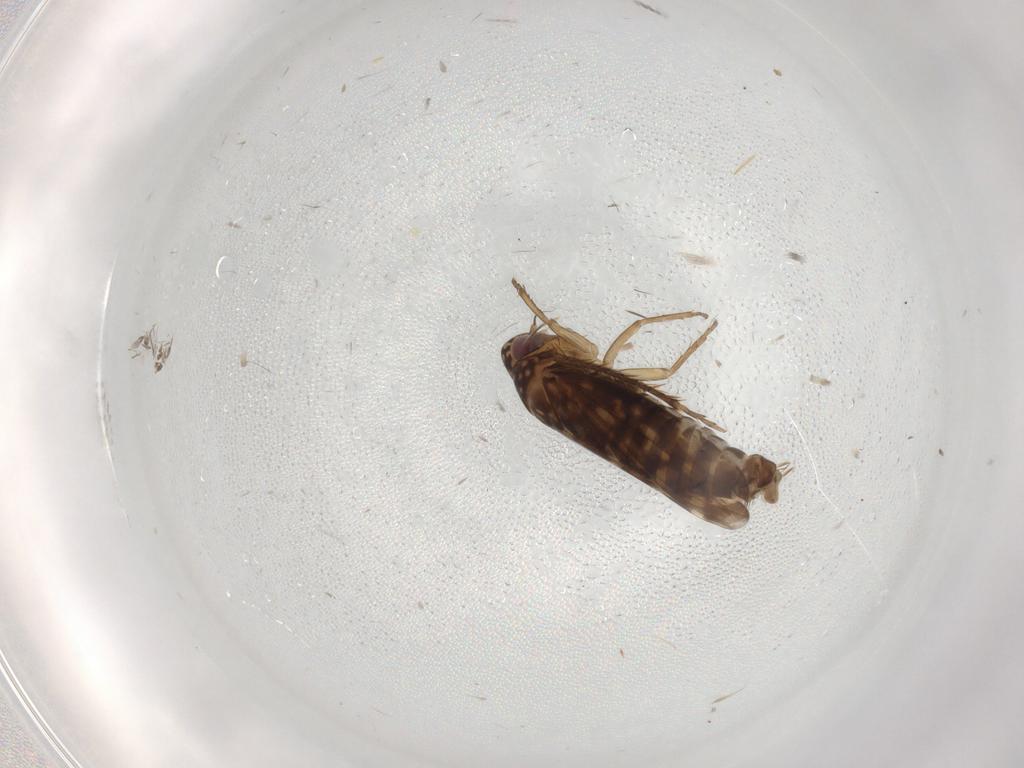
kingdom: Animalia
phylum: Arthropoda
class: Insecta
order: Hemiptera
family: Cicadellidae
